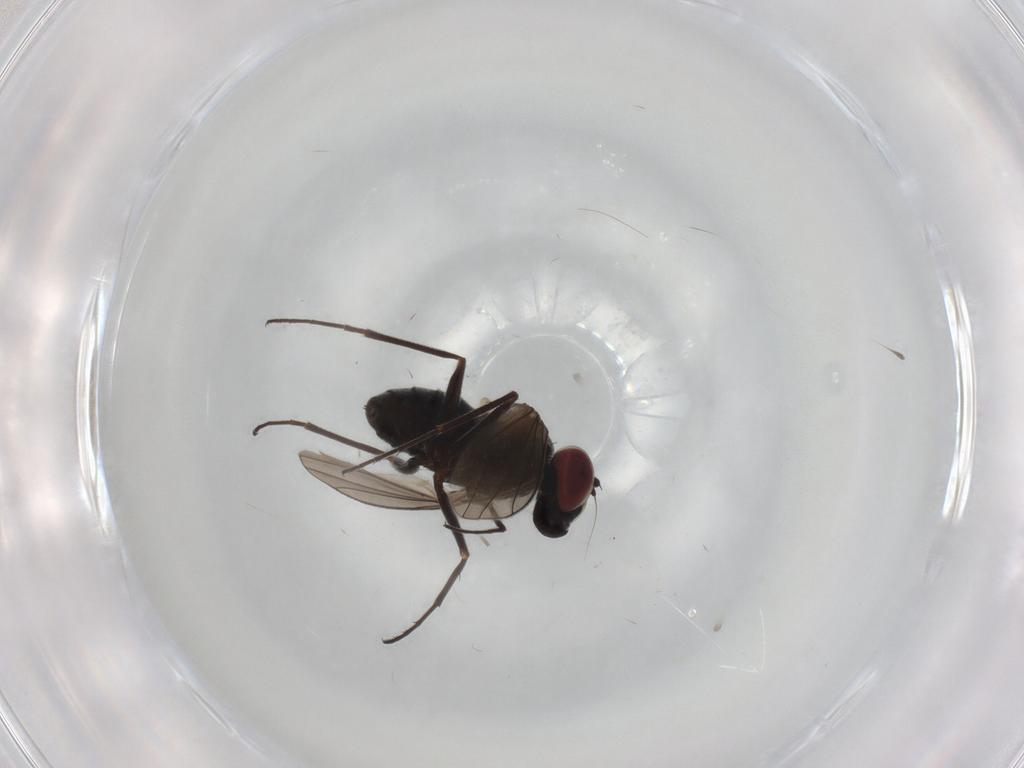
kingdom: Animalia
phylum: Arthropoda
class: Insecta
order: Diptera
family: Dolichopodidae
